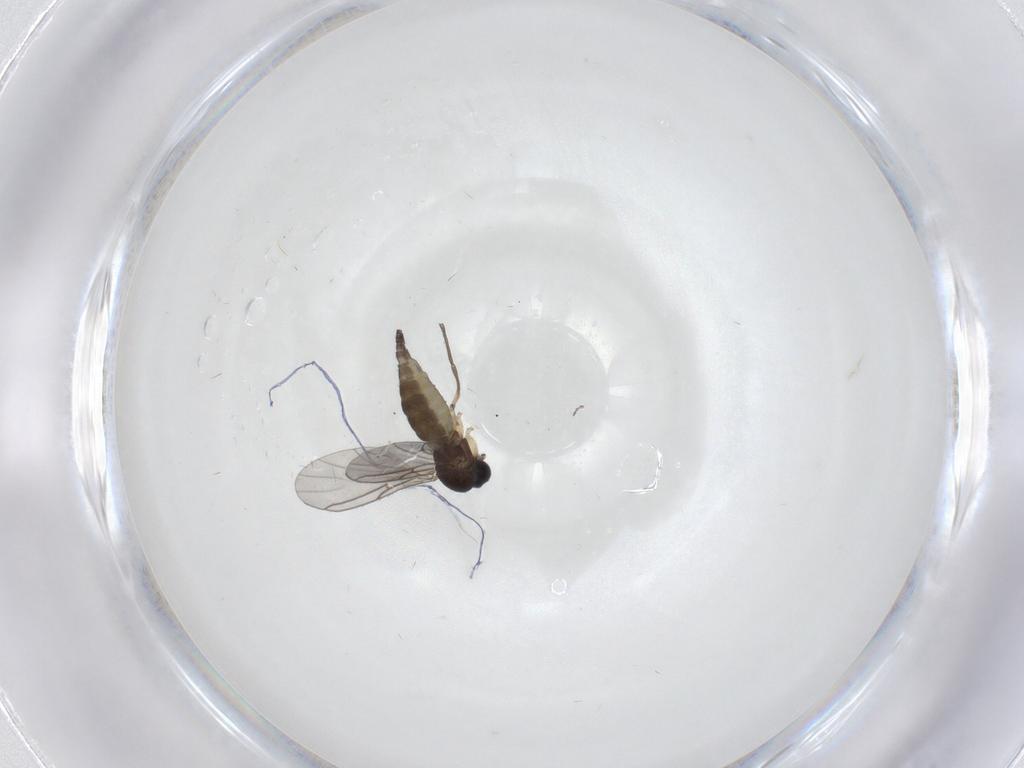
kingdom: Animalia
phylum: Arthropoda
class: Insecta
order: Diptera
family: Sciaridae
